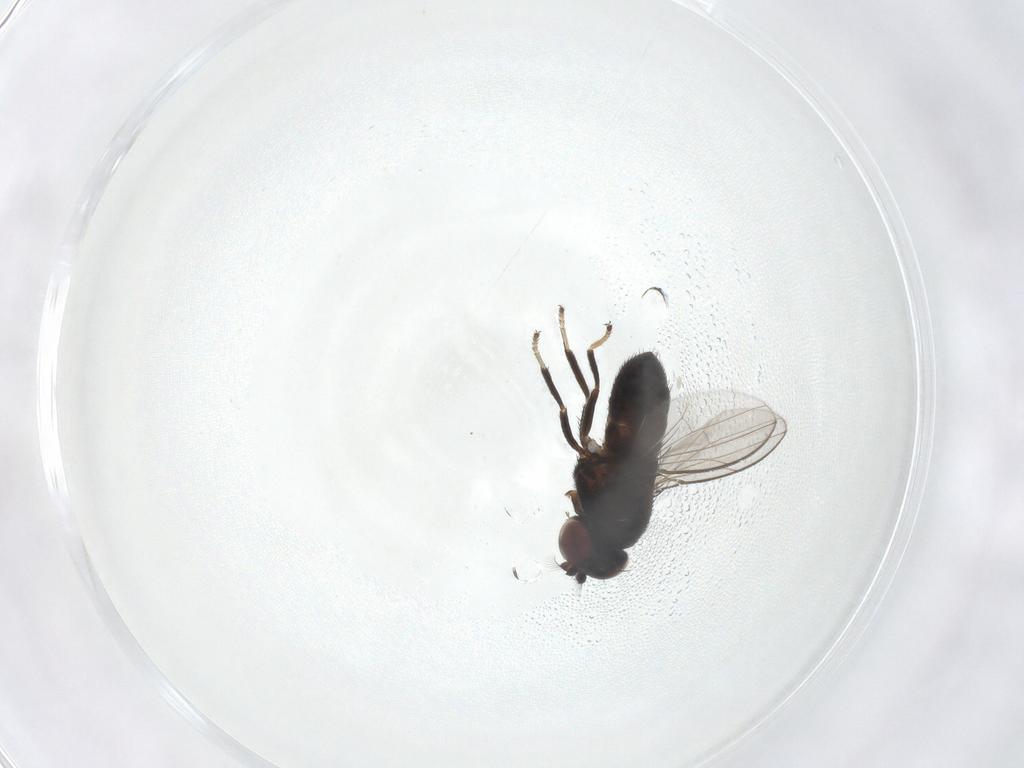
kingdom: Animalia
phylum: Arthropoda
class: Insecta
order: Diptera
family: Ephydridae
